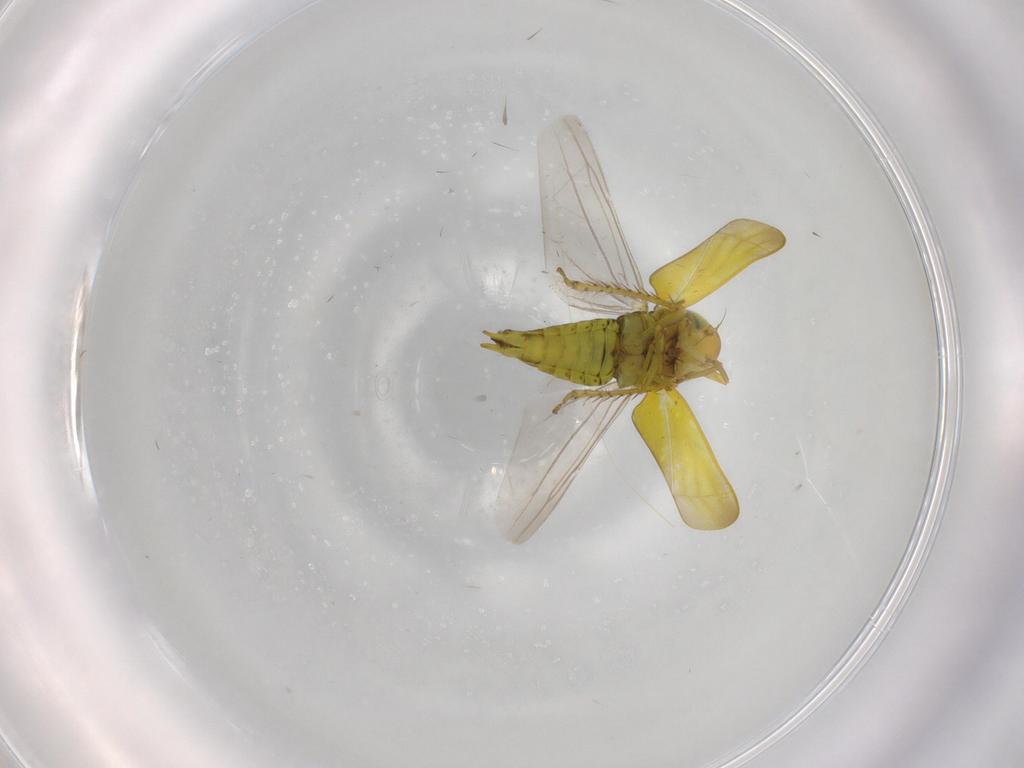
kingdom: Animalia
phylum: Arthropoda
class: Insecta
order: Hemiptera
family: Cicadellidae
